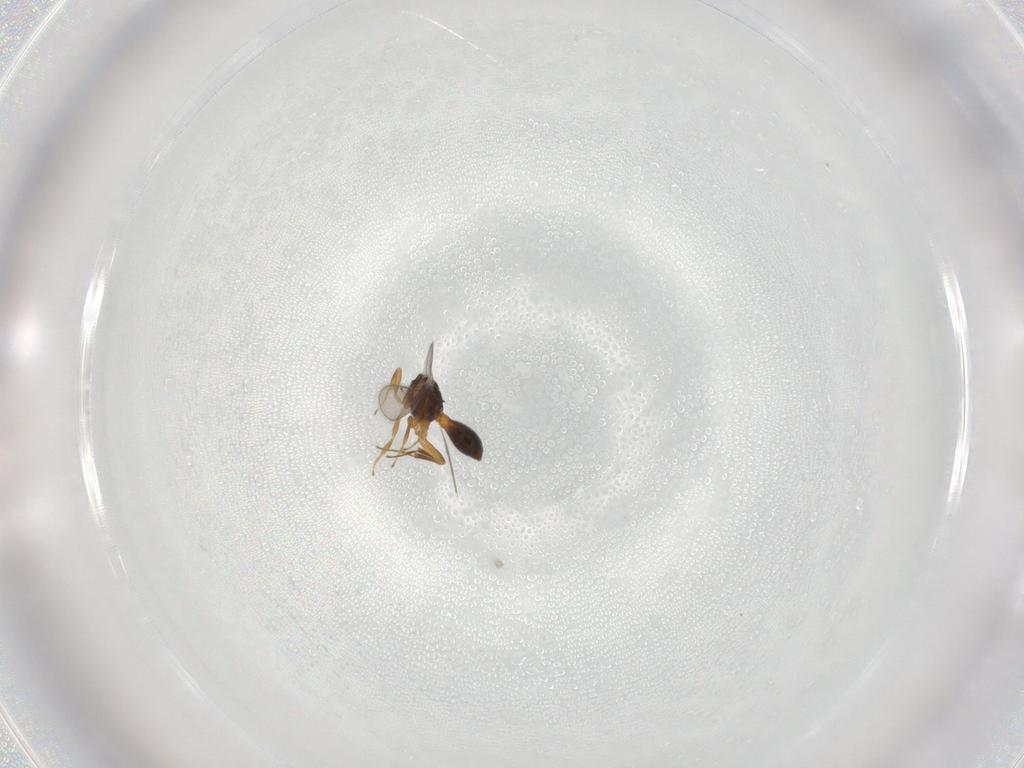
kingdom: Animalia
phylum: Arthropoda
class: Insecta
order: Hymenoptera
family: Scelionidae
